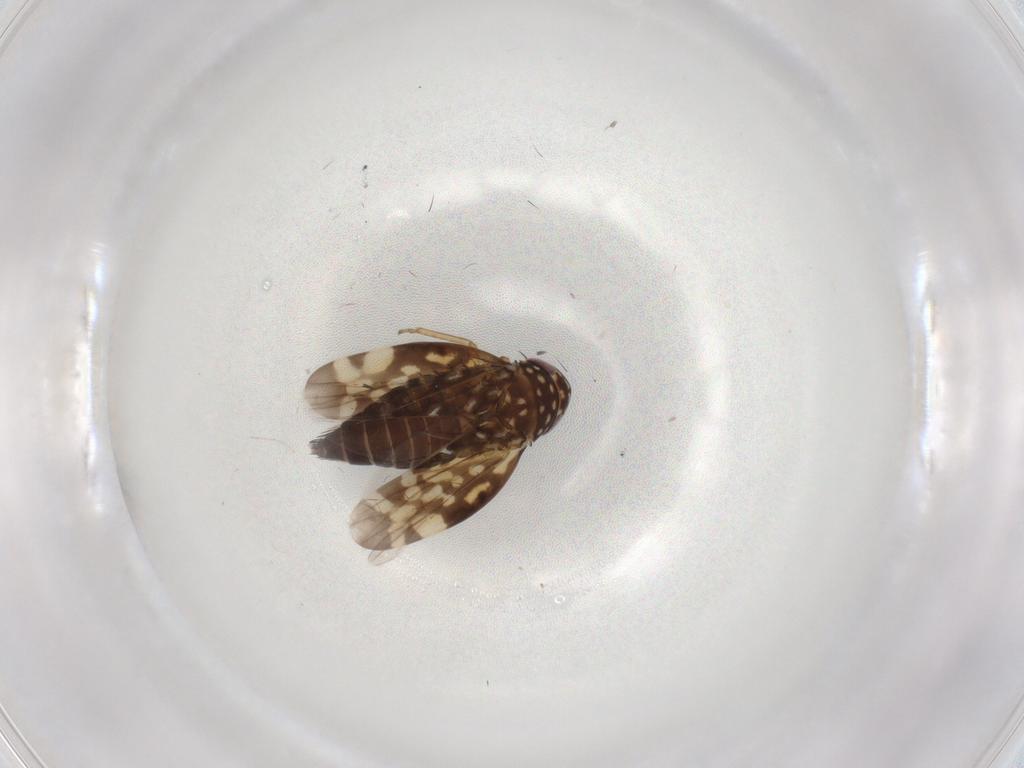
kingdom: Animalia
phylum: Arthropoda
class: Insecta
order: Hemiptera
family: Cicadellidae
